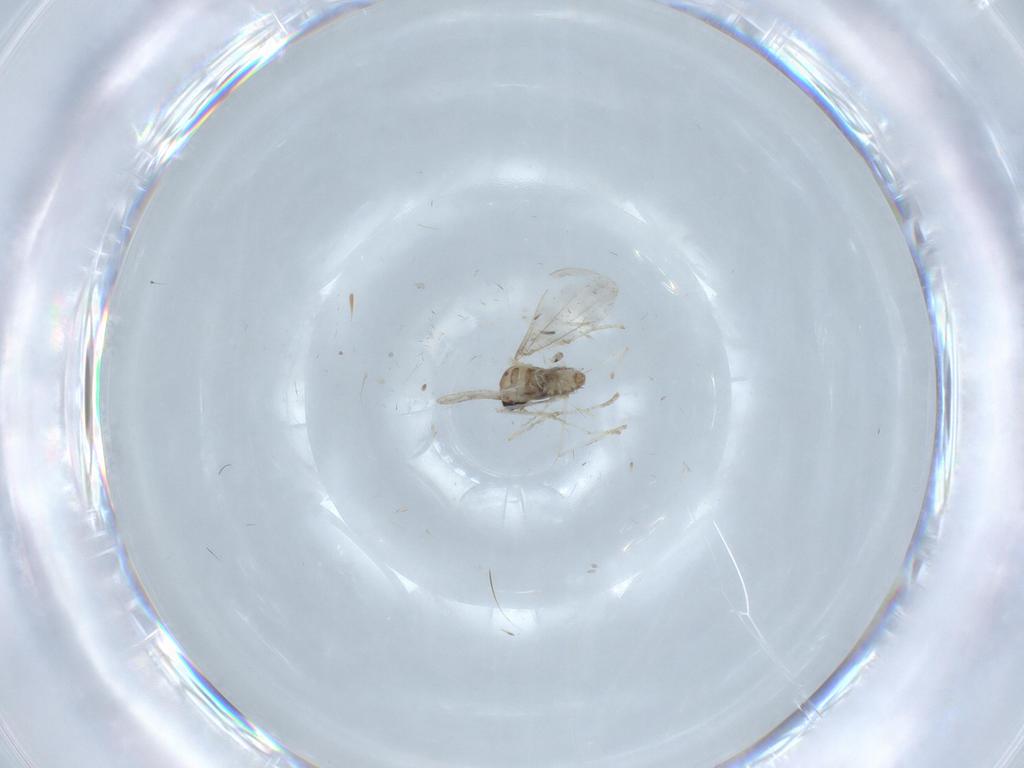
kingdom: Animalia
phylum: Arthropoda
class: Insecta
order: Diptera
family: Cecidomyiidae
